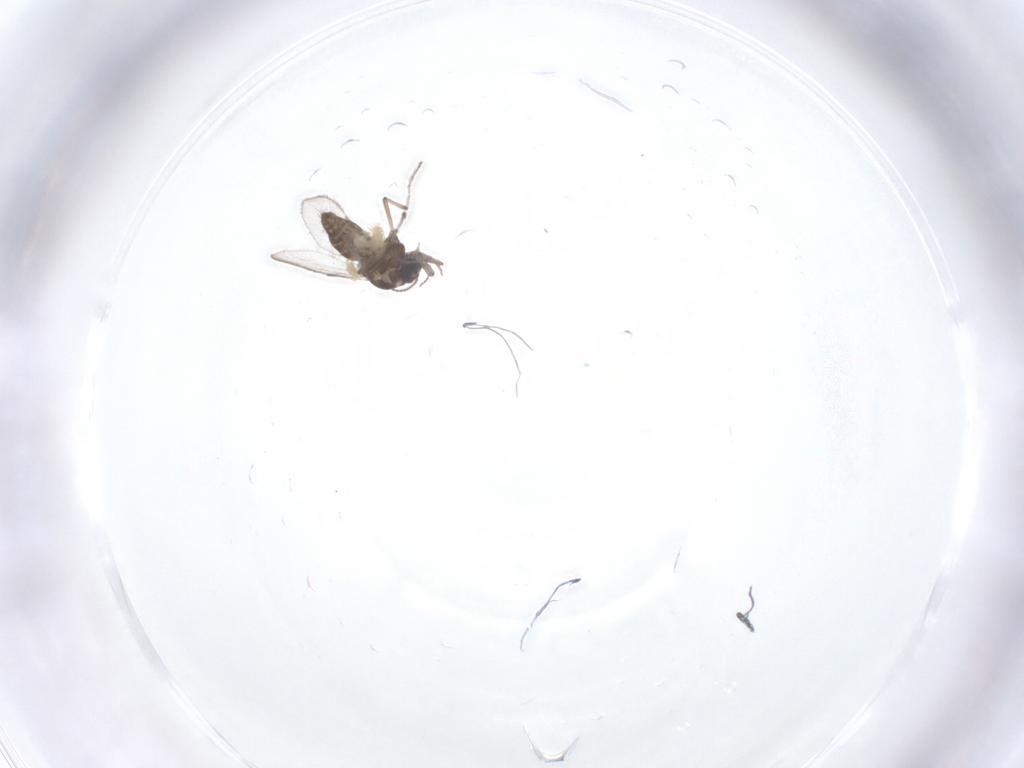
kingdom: Animalia
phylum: Arthropoda
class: Insecta
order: Diptera
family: Ceratopogonidae
